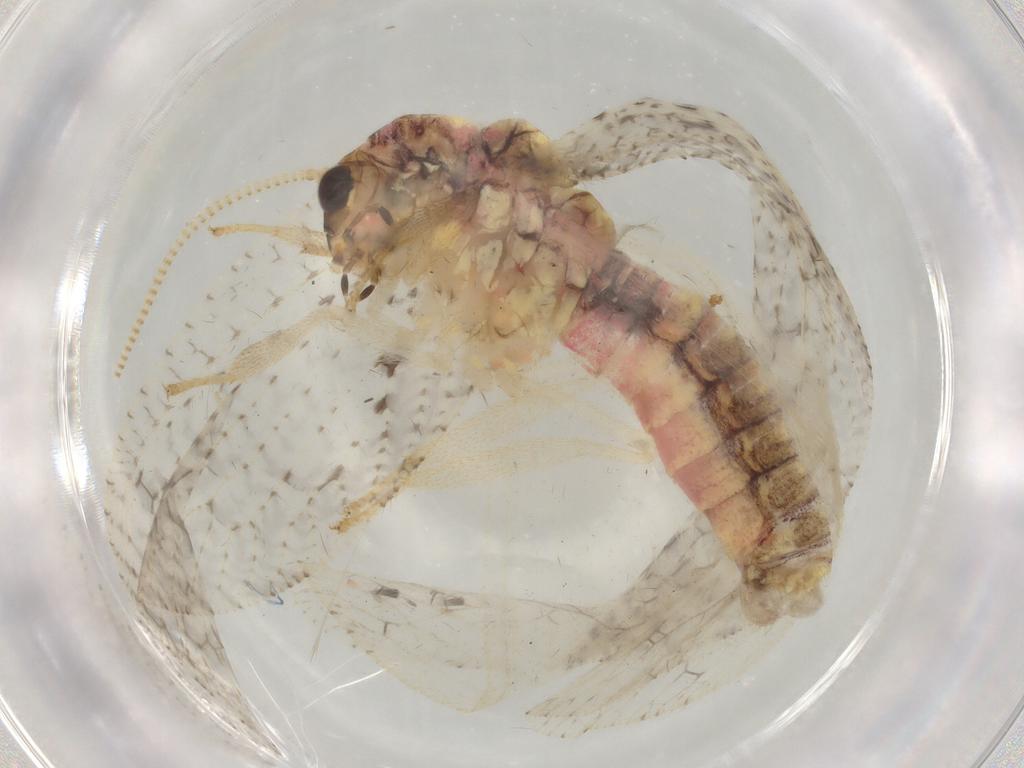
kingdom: Animalia
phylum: Arthropoda
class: Insecta
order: Neuroptera
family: Hemerobiidae
